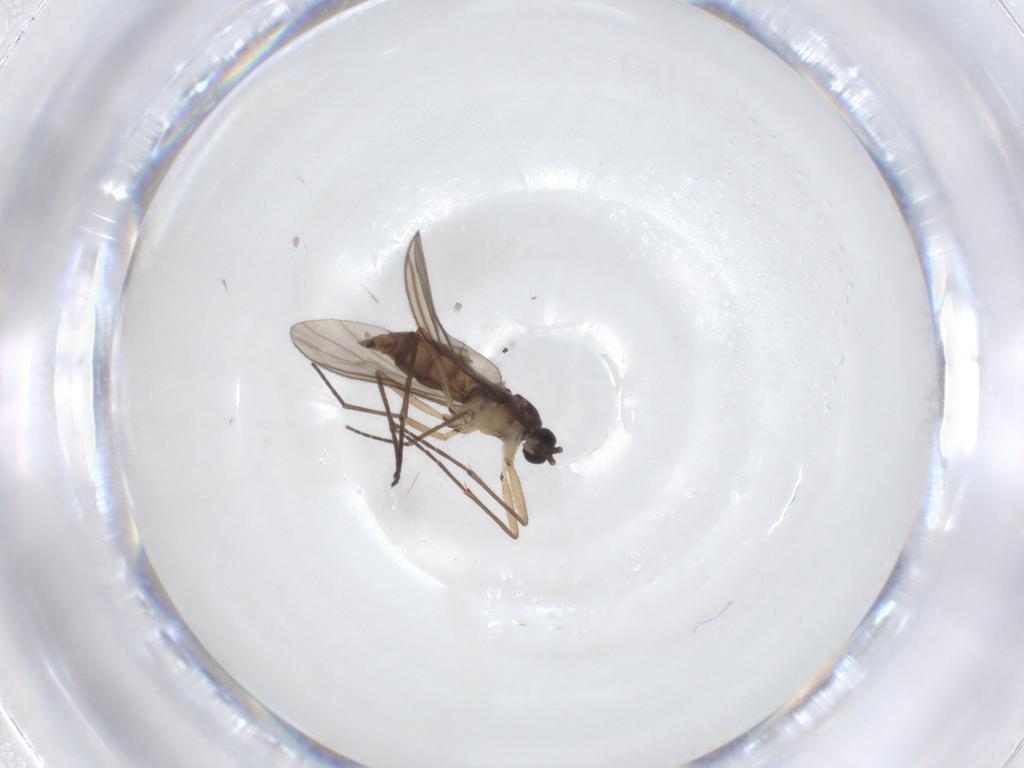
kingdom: Animalia
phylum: Arthropoda
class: Insecta
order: Diptera
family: Sciaridae
